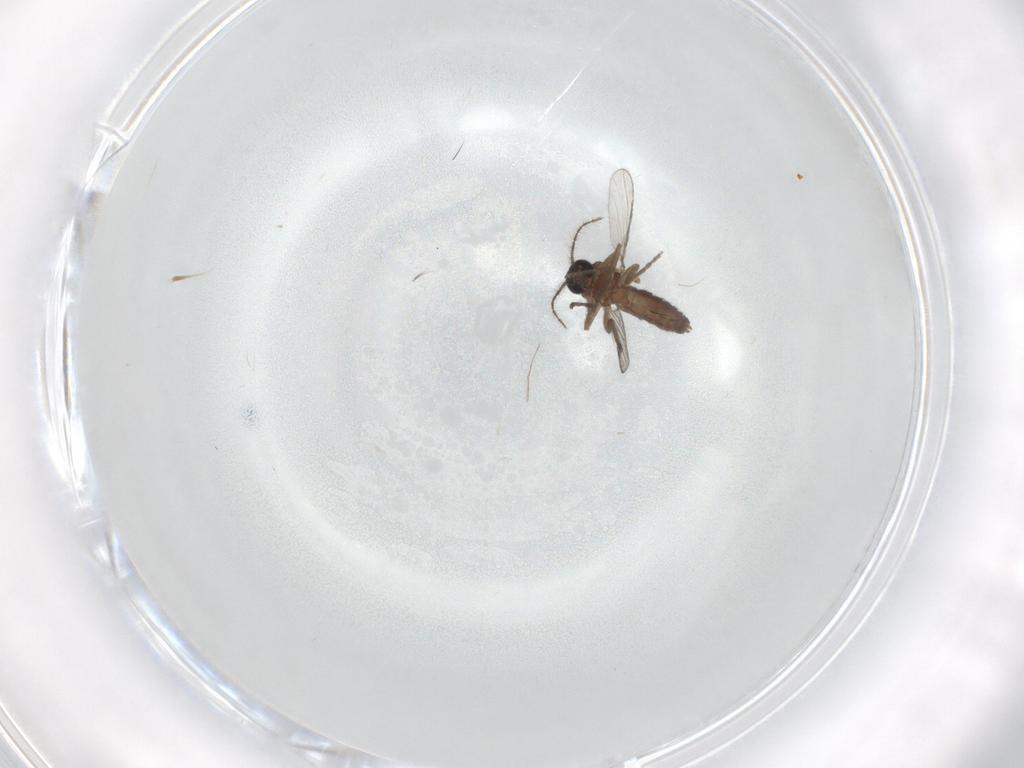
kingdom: Animalia
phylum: Arthropoda
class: Insecta
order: Diptera
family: Ceratopogonidae
